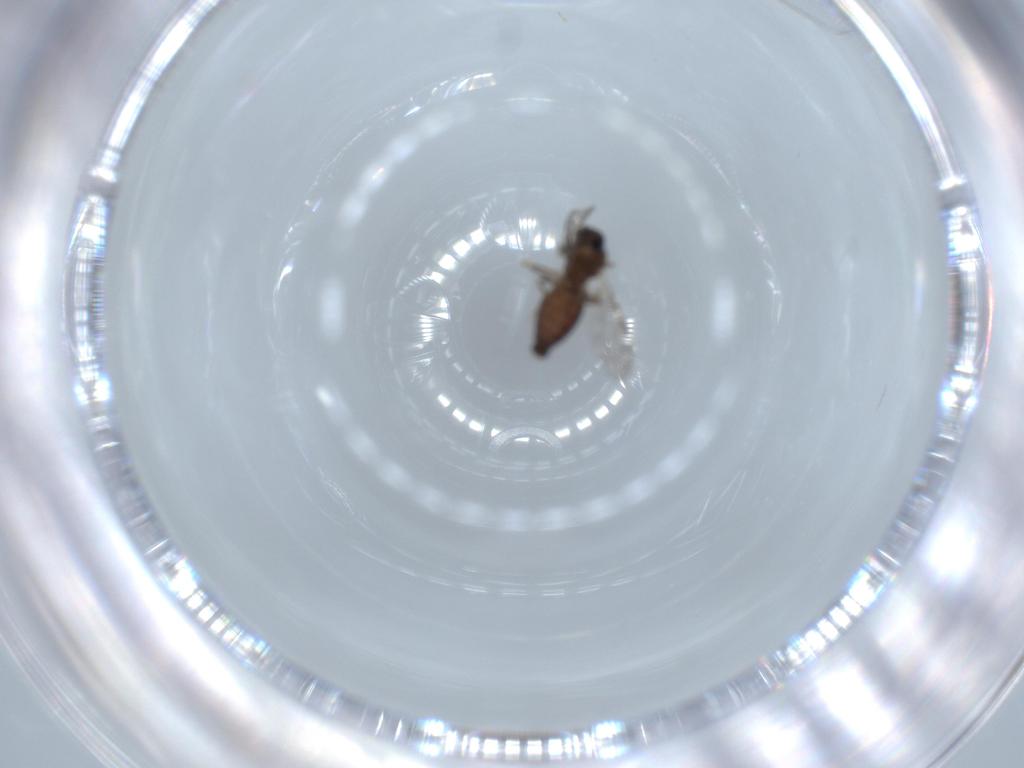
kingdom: Animalia
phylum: Arthropoda
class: Insecta
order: Diptera
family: Ceratopogonidae
